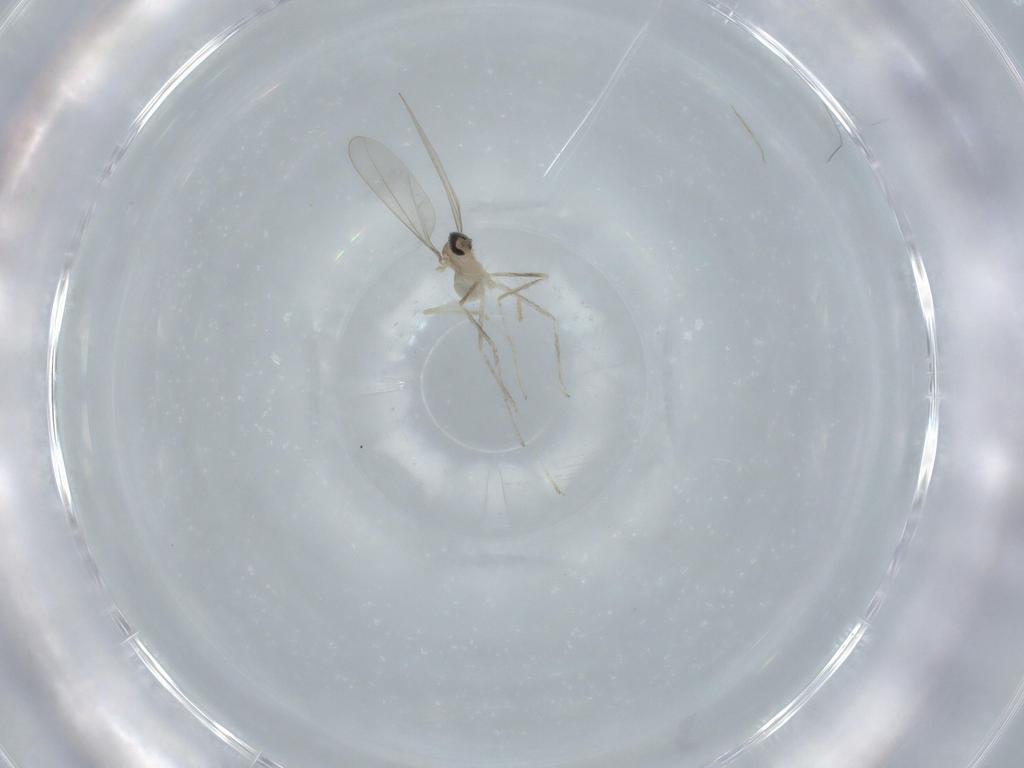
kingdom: Animalia
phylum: Arthropoda
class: Insecta
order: Diptera
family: Cecidomyiidae
